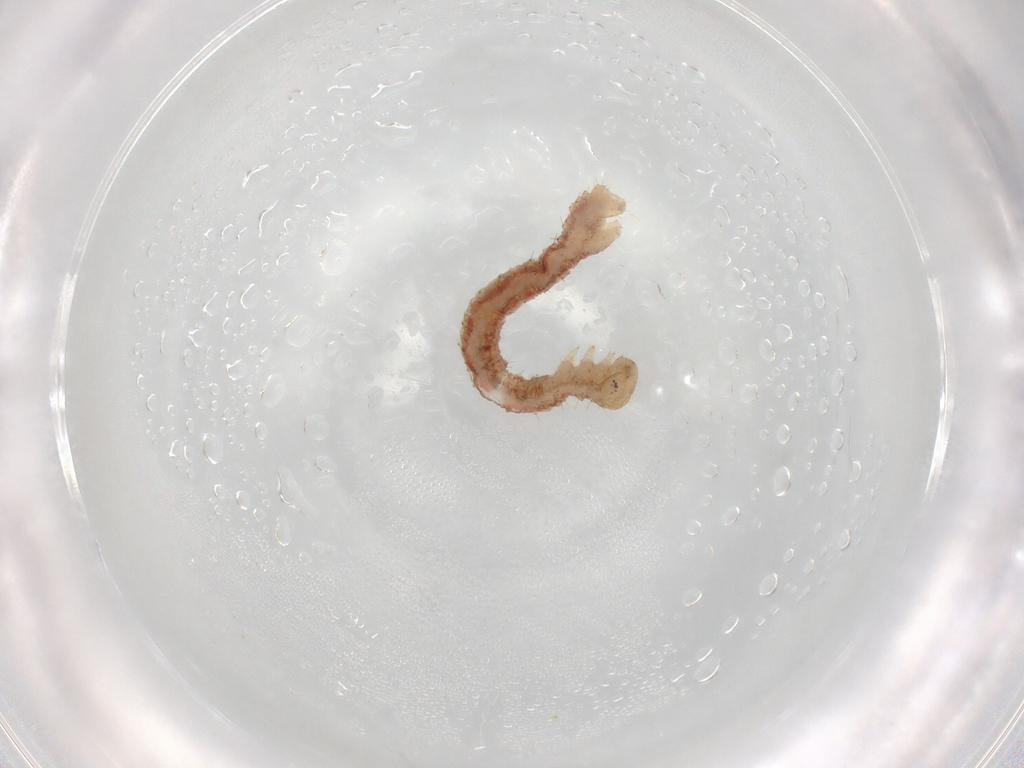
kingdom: Animalia
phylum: Arthropoda
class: Insecta
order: Lepidoptera
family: Geometridae
